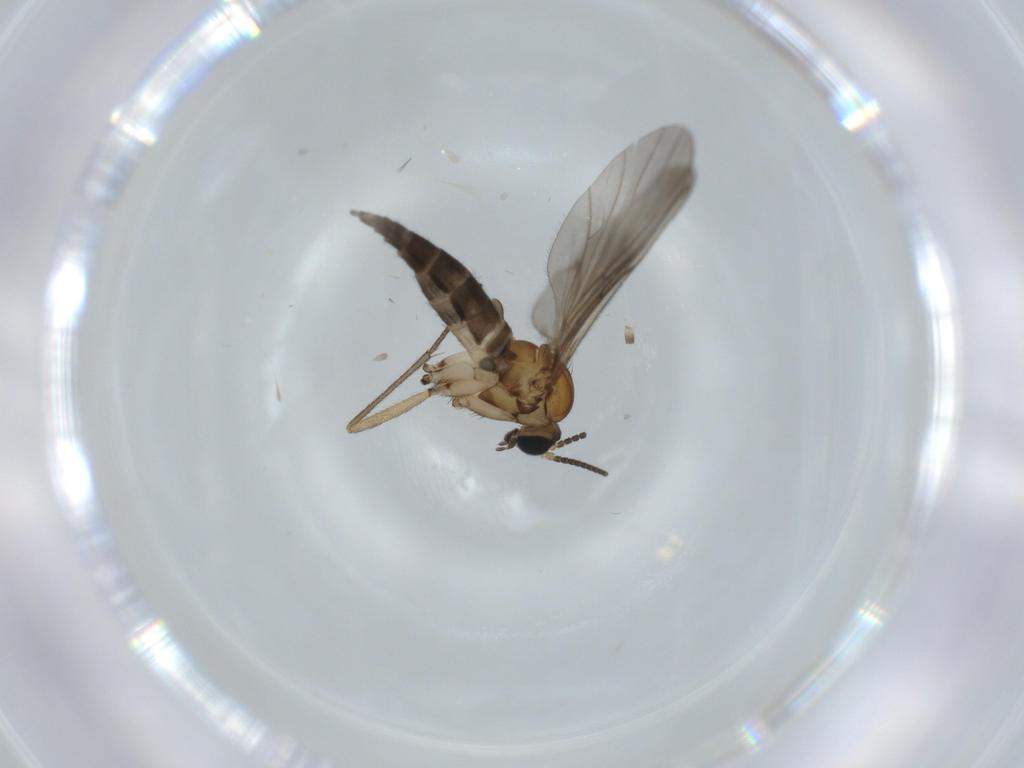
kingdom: Animalia
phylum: Arthropoda
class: Insecta
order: Diptera
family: Sciaridae
